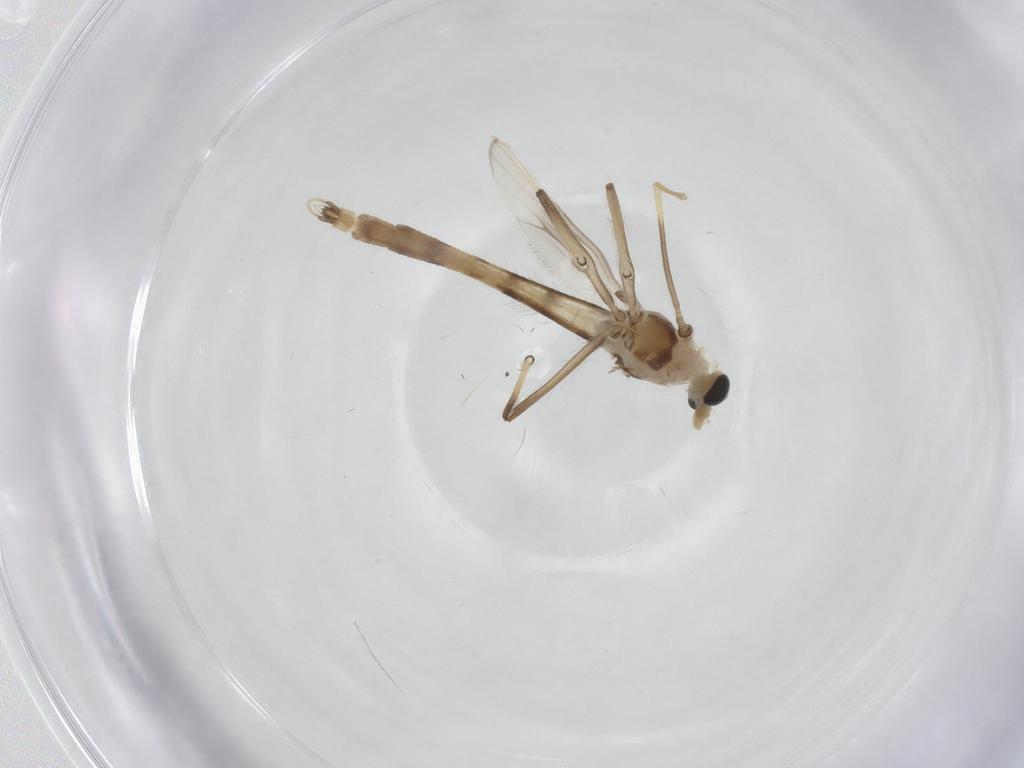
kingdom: Animalia
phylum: Arthropoda
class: Insecta
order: Diptera
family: Chironomidae
